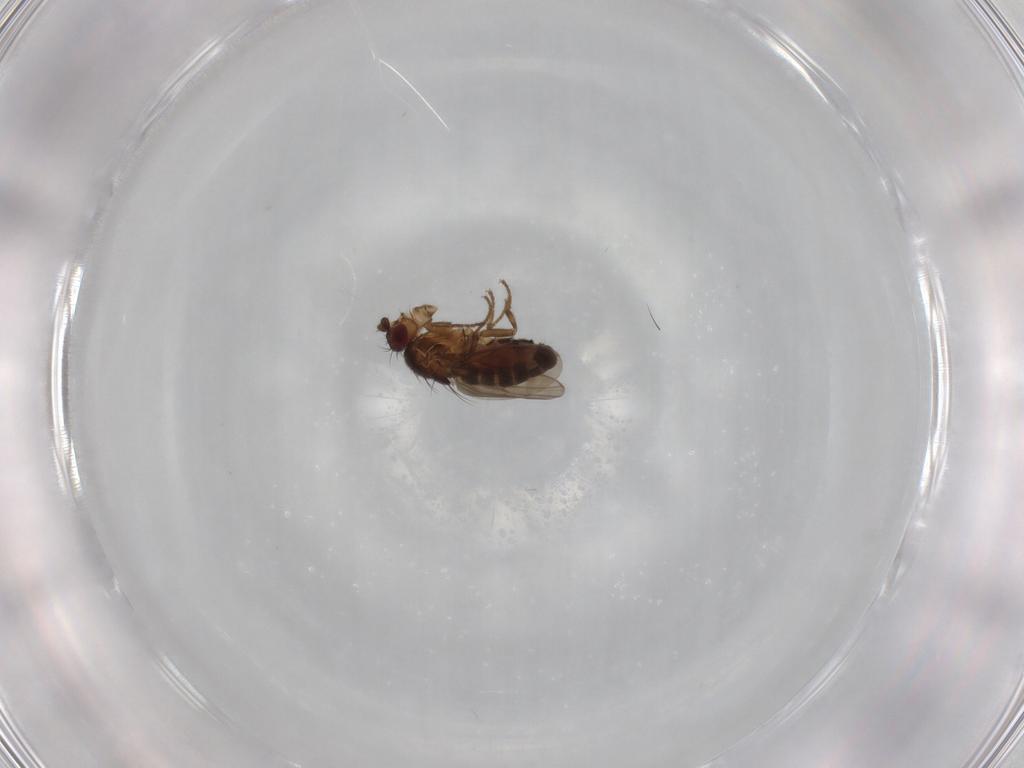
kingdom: Animalia
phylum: Arthropoda
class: Insecta
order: Diptera
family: Sphaeroceridae
